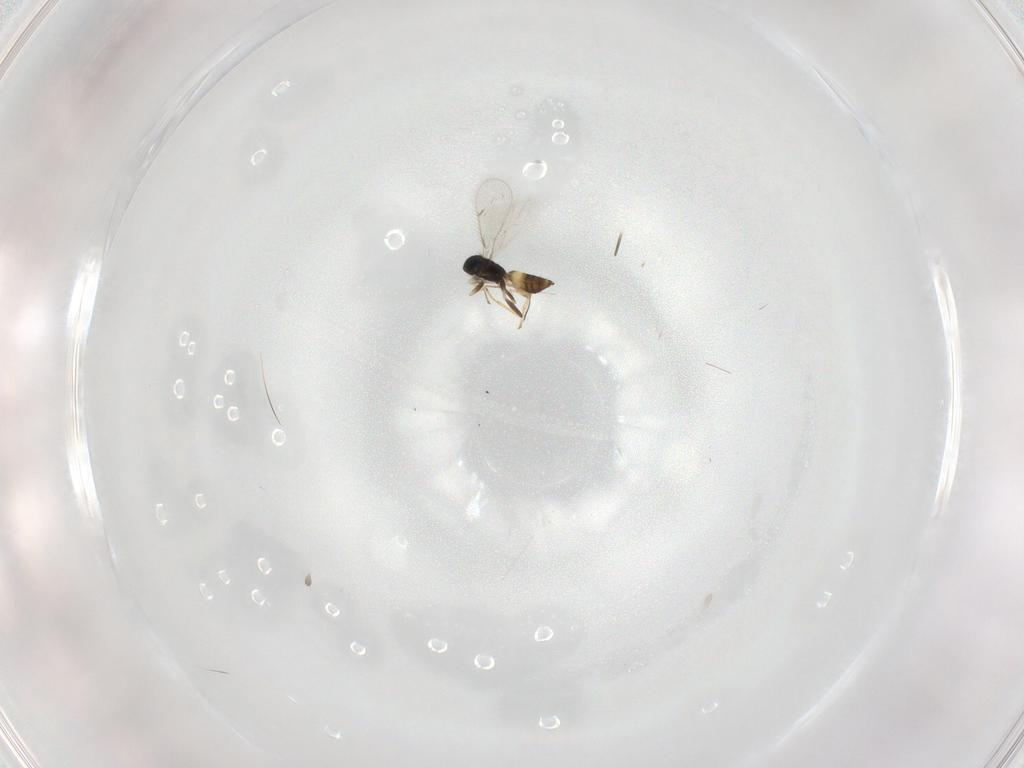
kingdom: Animalia
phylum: Arthropoda
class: Insecta
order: Hymenoptera
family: Eulophidae
